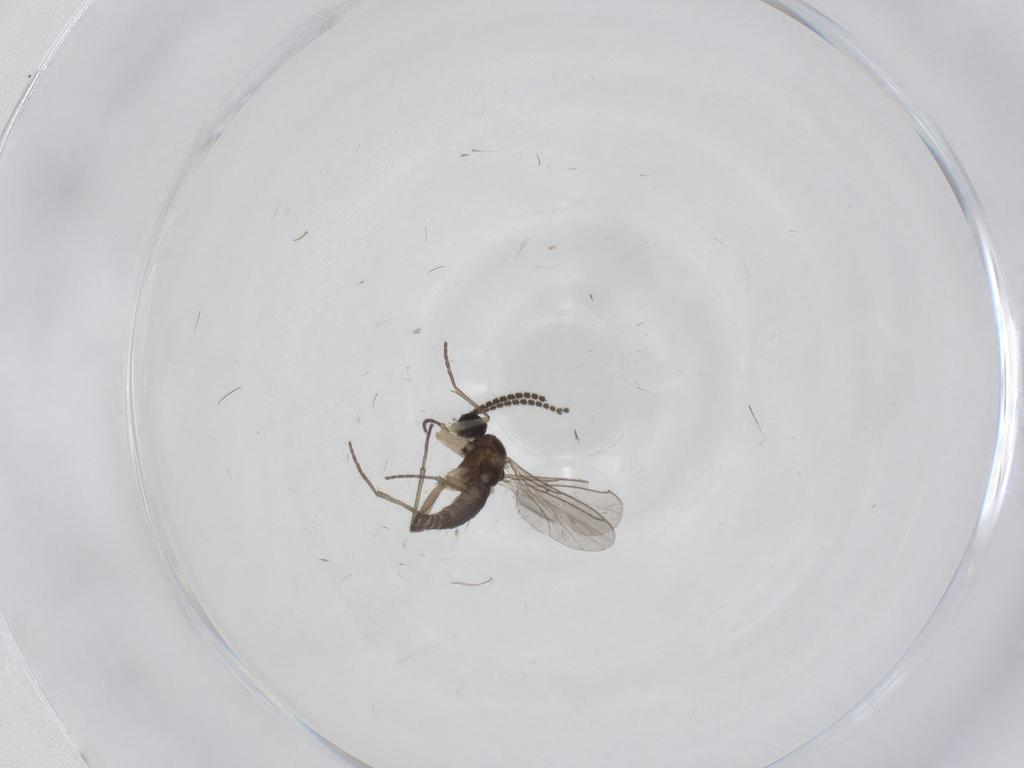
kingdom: Animalia
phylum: Arthropoda
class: Insecta
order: Diptera
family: Sciaridae
